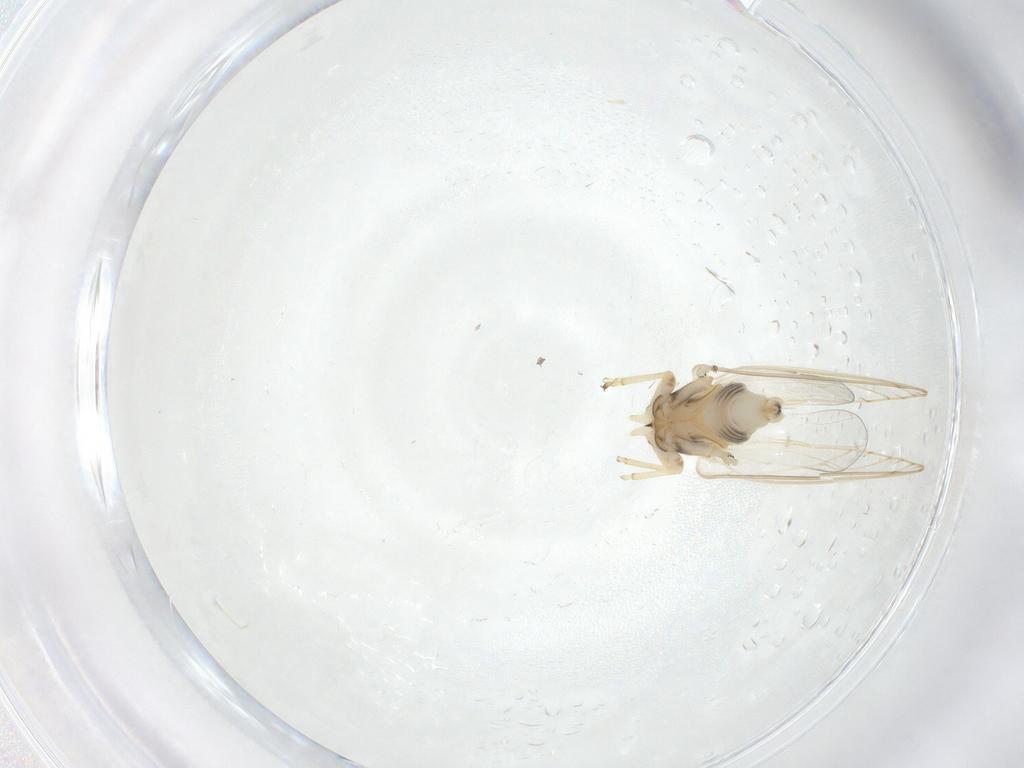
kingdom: Animalia
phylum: Arthropoda
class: Insecta
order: Hemiptera
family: Triozidae
